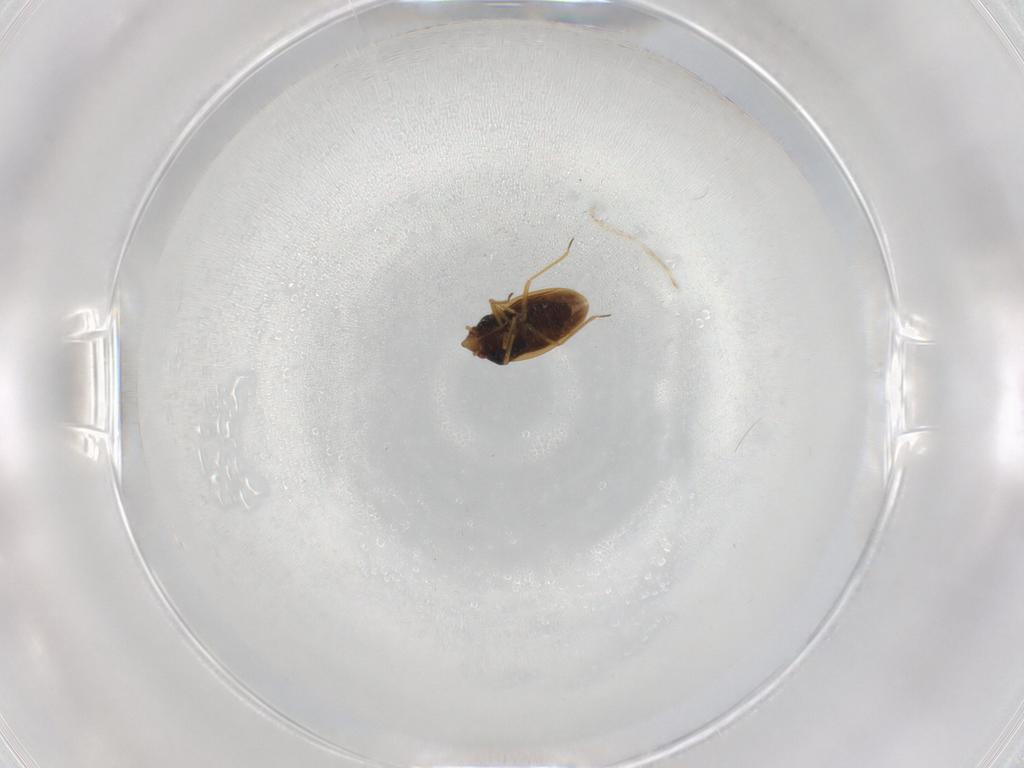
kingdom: Animalia
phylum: Arthropoda
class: Insecta
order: Hemiptera
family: Schizopteridae
